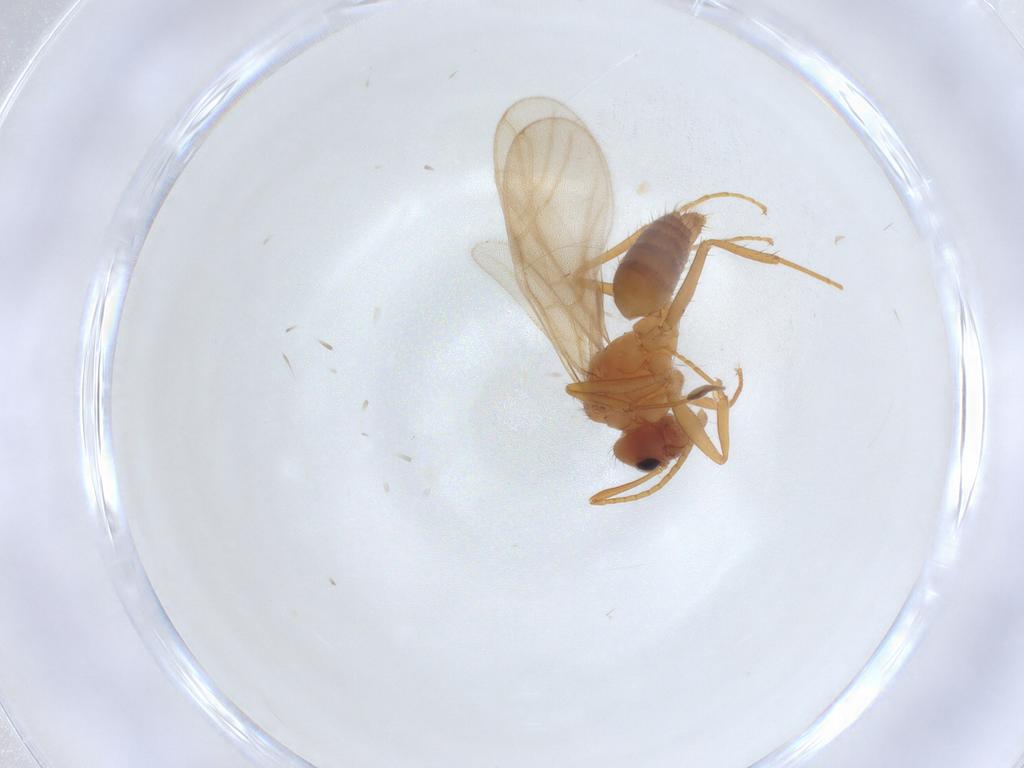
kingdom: Animalia
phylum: Arthropoda
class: Insecta
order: Hymenoptera
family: Formicidae
